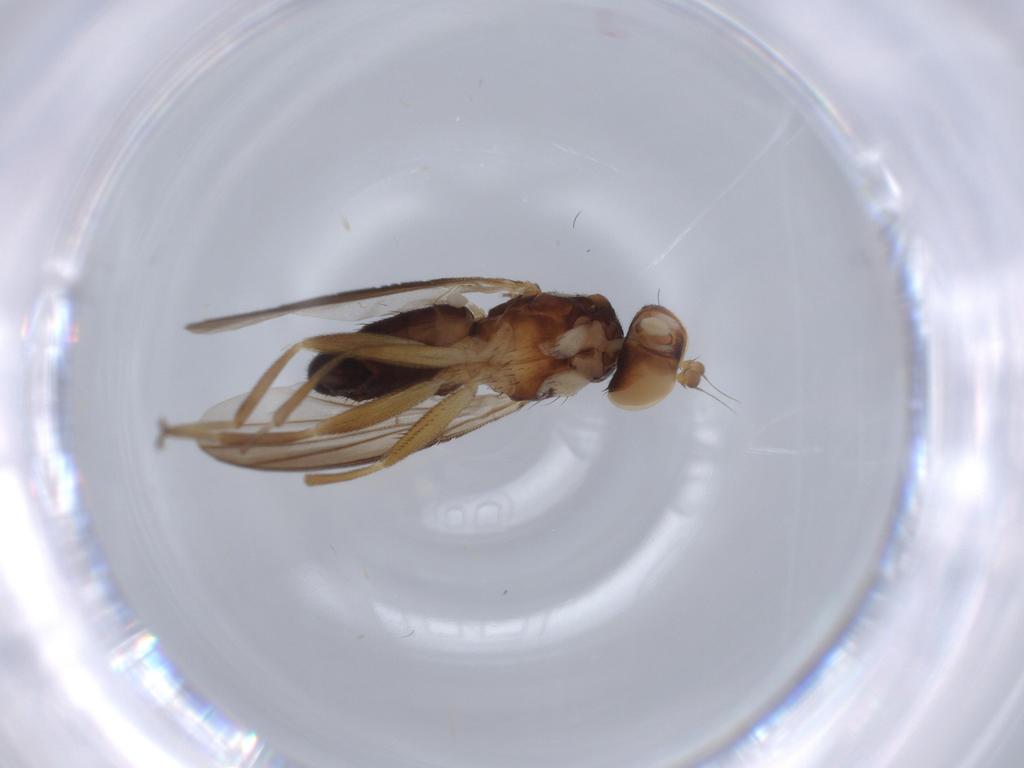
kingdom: Animalia
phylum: Arthropoda
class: Insecta
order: Diptera
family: Clusiidae
